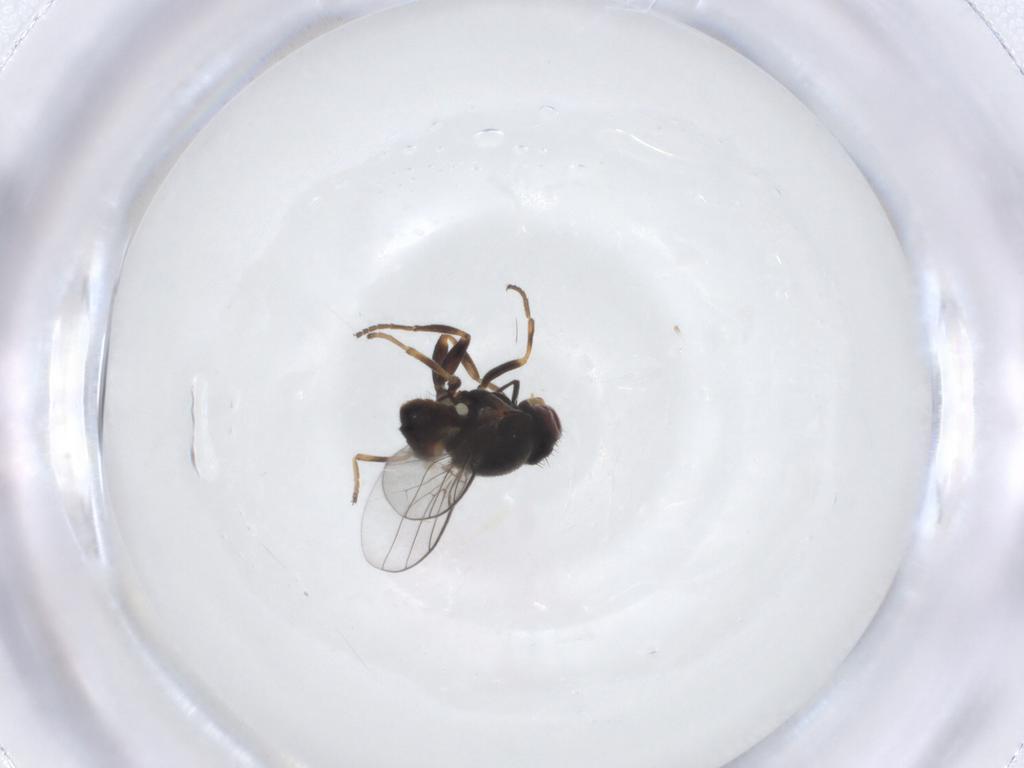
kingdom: Animalia
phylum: Arthropoda
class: Insecta
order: Diptera
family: Chloropidae
